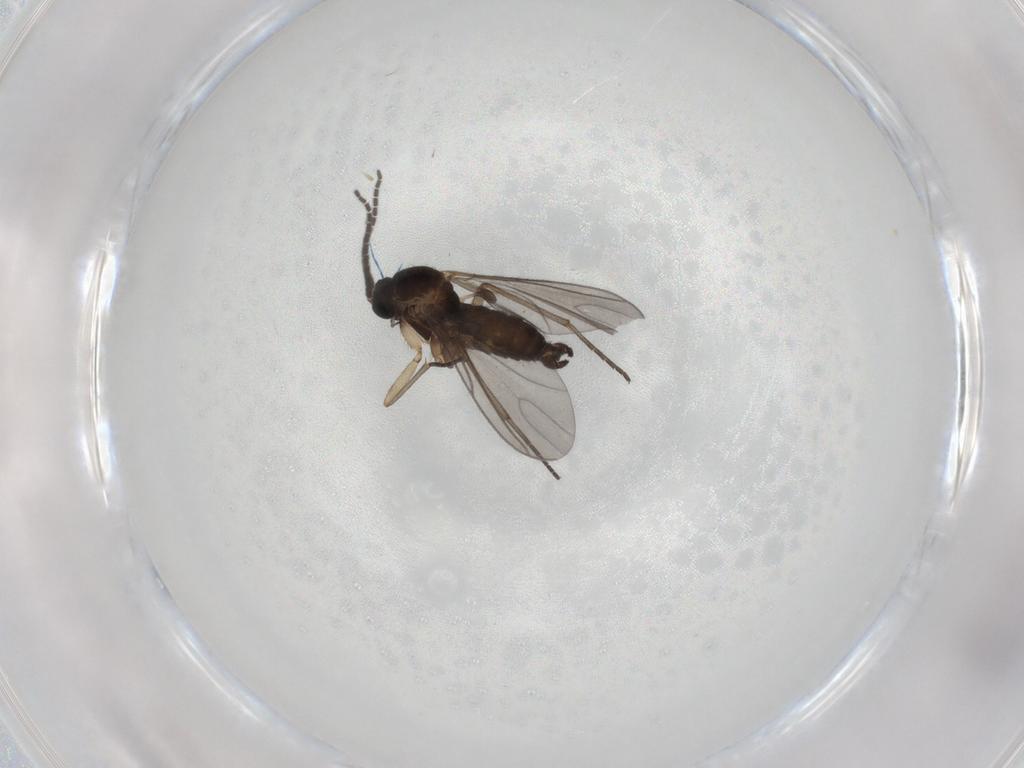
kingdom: Animalia
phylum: Arthropoda
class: Insecta
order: Diptera
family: Sciaridae
